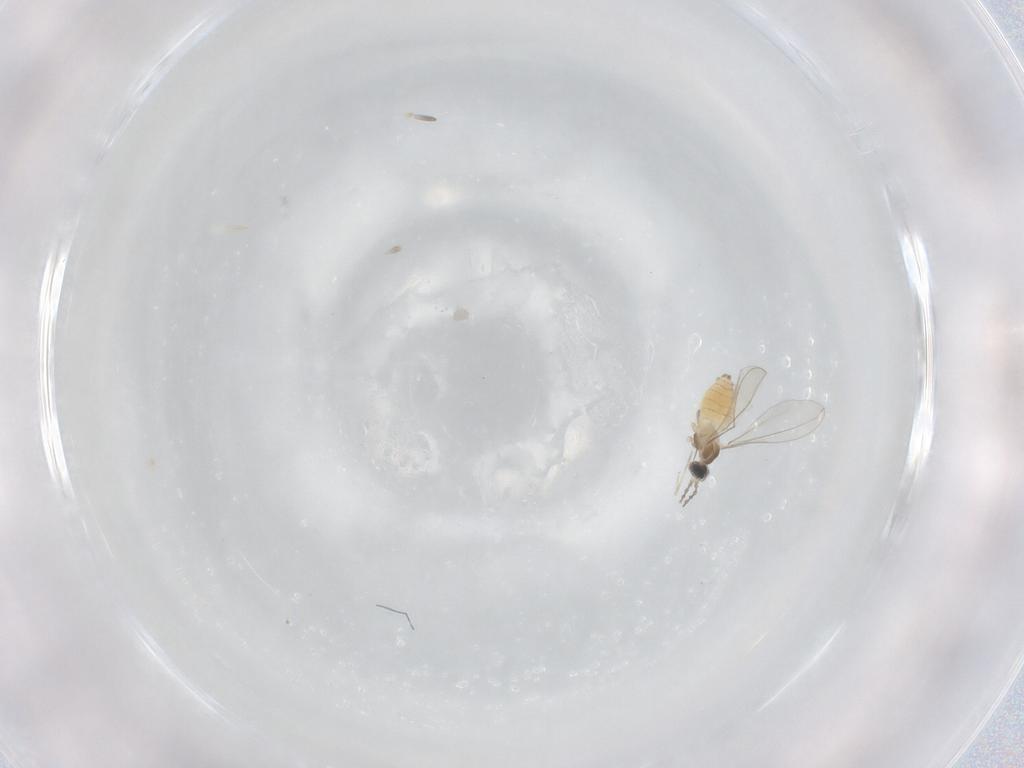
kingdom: Animalia
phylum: Arthropoda
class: Insecta
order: Diptera
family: Cecidomyiidae
